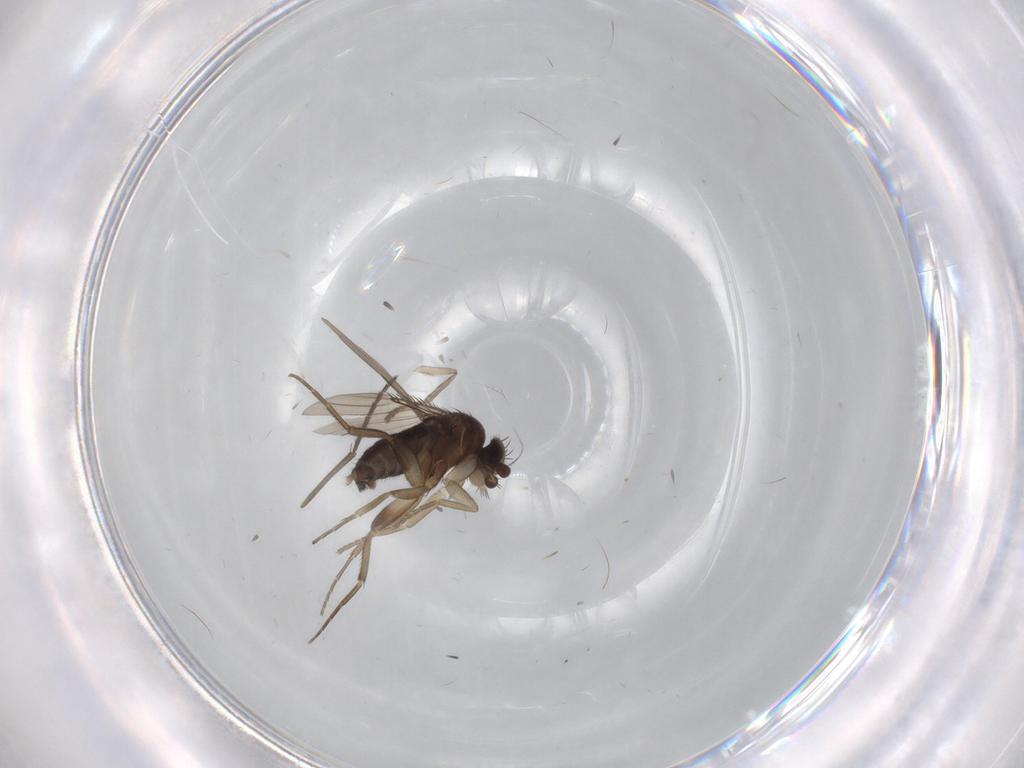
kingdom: Animalia
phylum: Arthropoda
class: Insecta
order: Diptera
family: Phoridae
